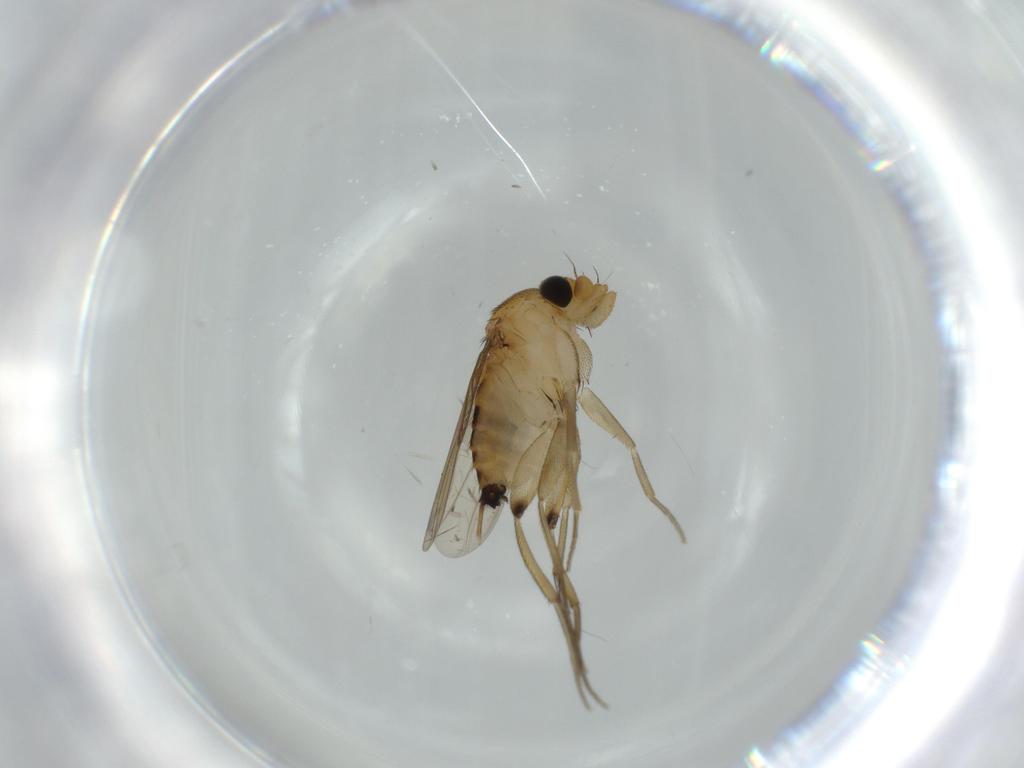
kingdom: Animalia
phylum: Arthropoda
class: Insecta
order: Diptera
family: Phoridae
